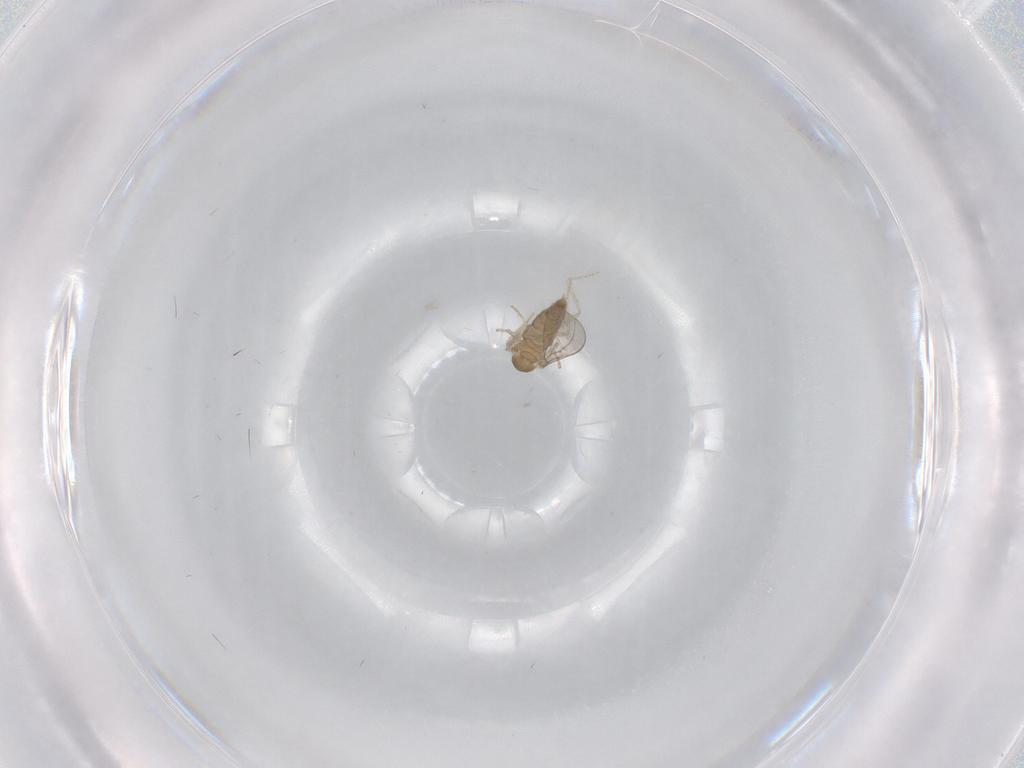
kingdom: Animalia
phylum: Arthropoda
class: Insecta
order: Diptera
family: Cecidomyiidae
